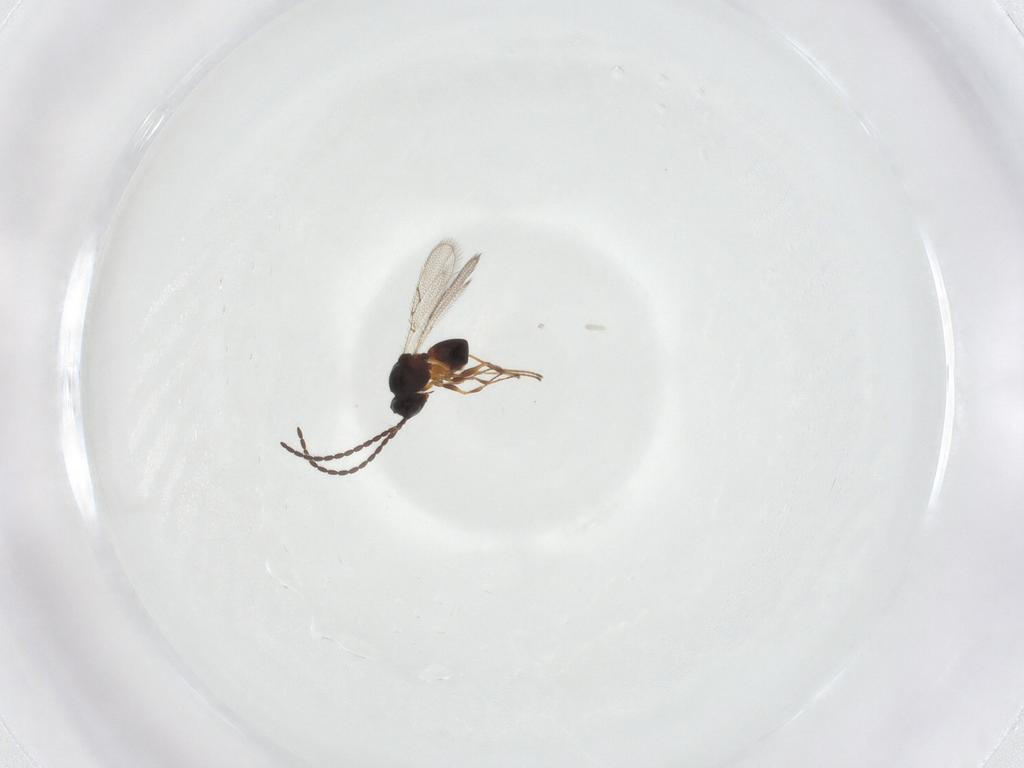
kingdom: Animalia
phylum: Arthropoda
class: Insecta
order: Hymenoptera
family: Figitidae
